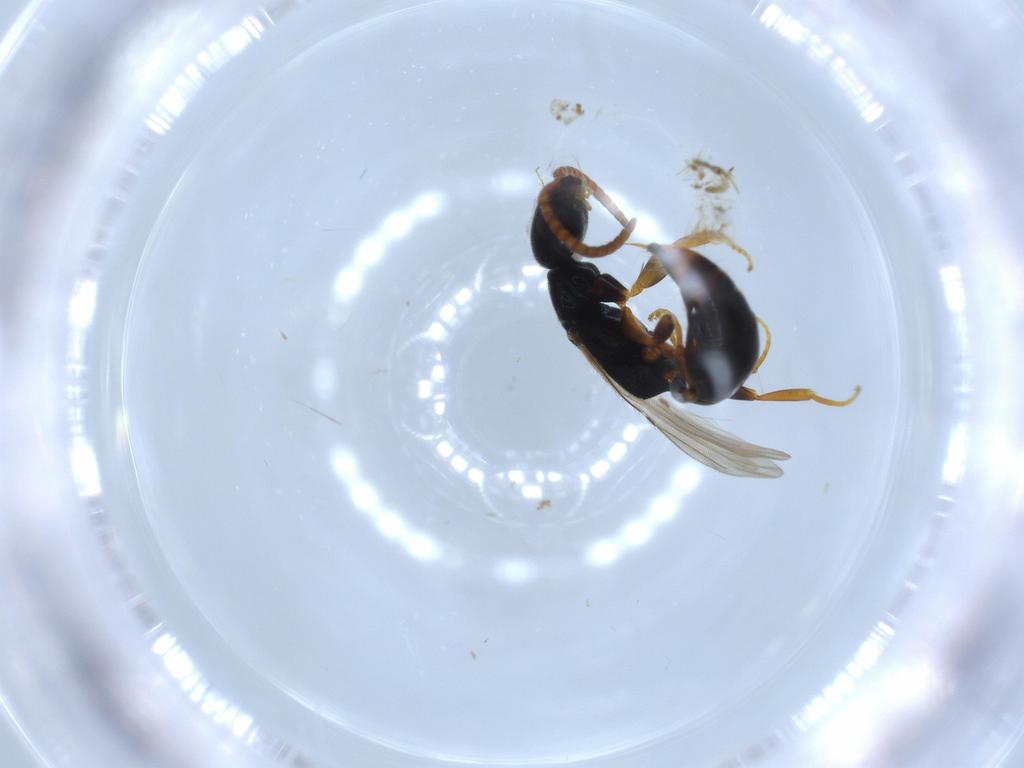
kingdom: Animalia
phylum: Arthropoda
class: Insecta
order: Hymenoptera
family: Bethylidae
